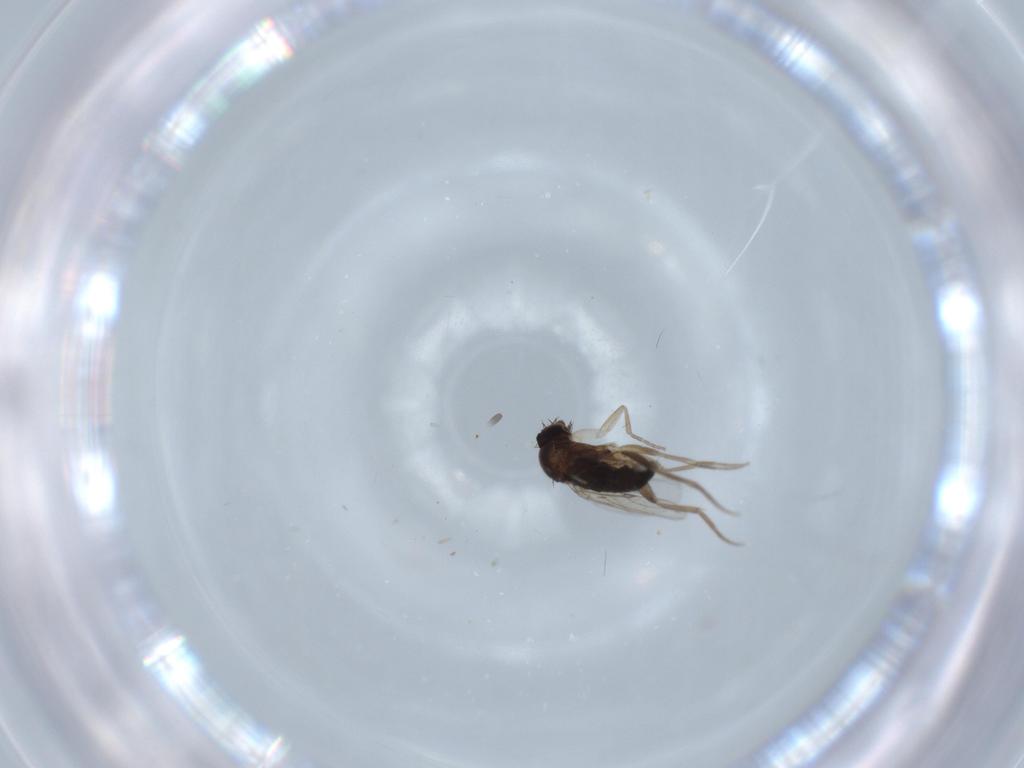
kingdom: Animalia
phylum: Arthropoda
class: Insecta
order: Diptera
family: Phoridae
